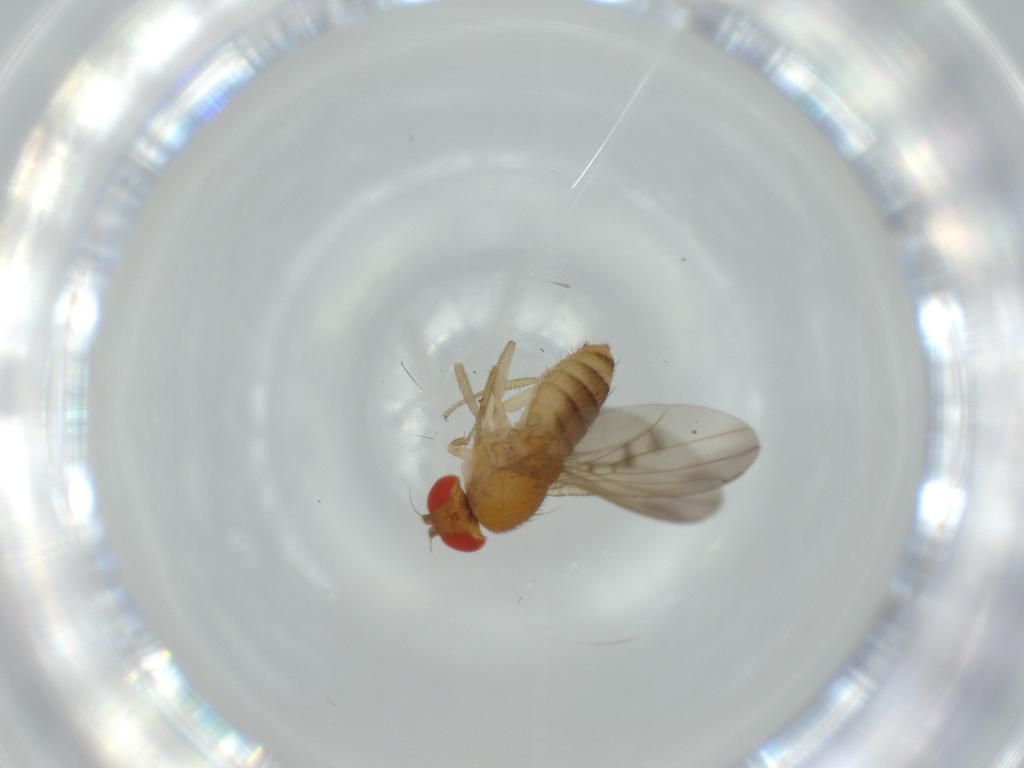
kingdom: Animalia
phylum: Arthropoda
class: Insecta
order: Diptera
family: Drosophilidae
